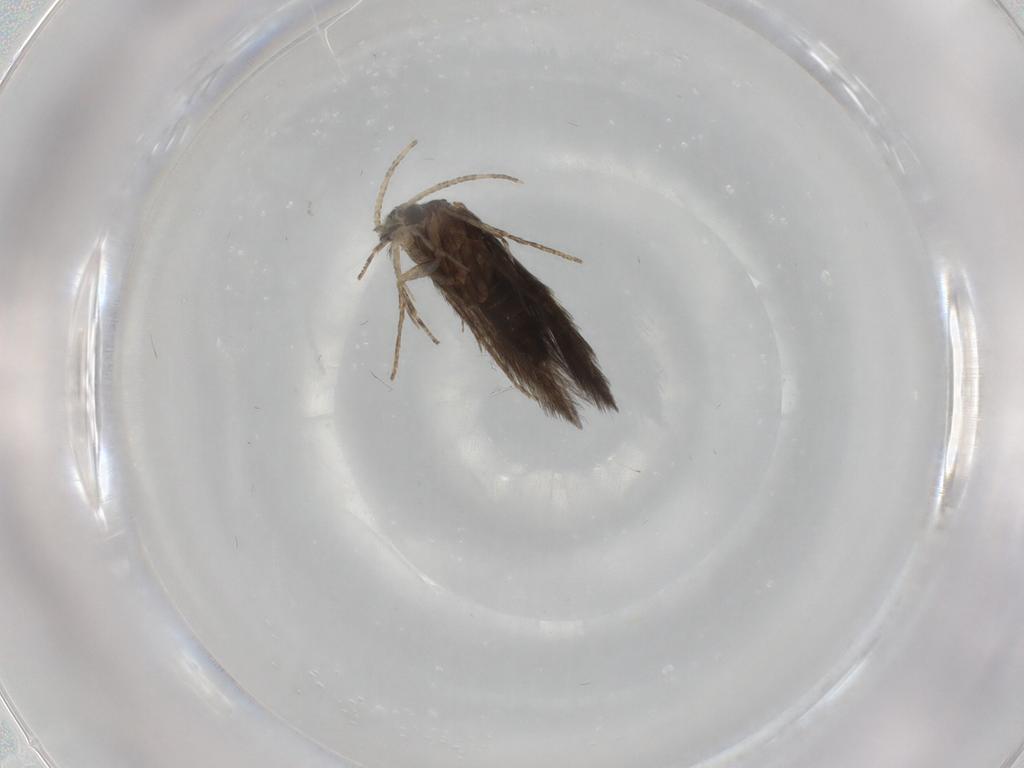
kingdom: Animalia
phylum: Arthropoda
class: Insecta
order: Trichoptera
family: Hydroptilidae
